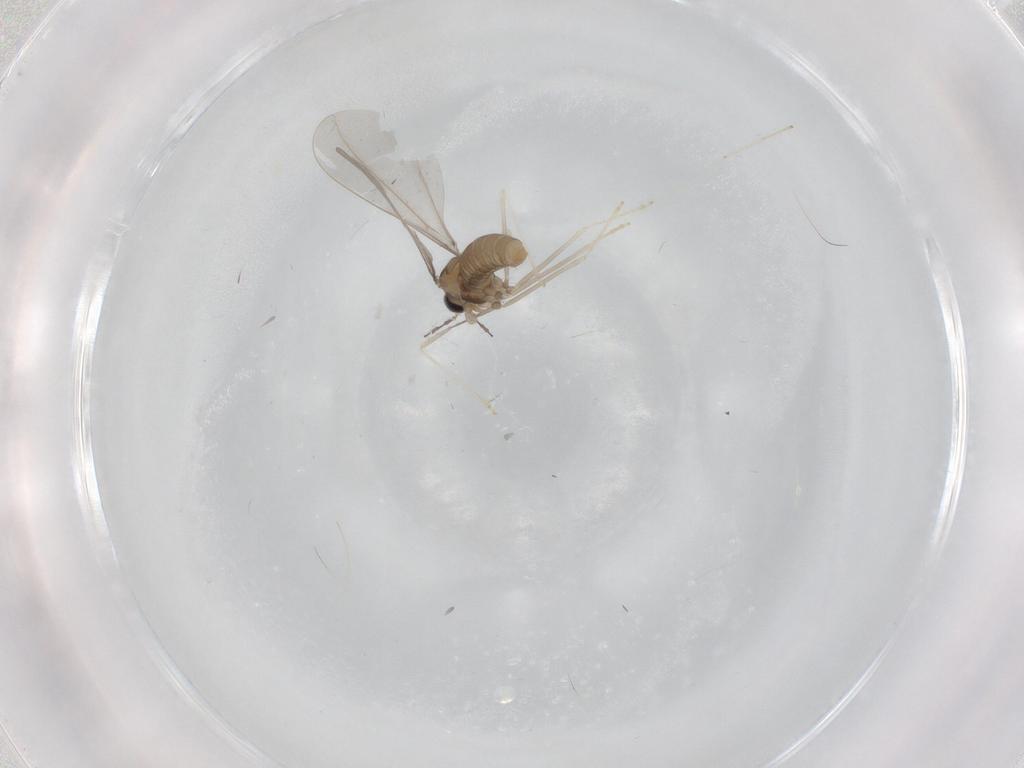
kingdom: Animalia
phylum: Arthropoda
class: Insecta
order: Diptera
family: Cecidomyiidae
